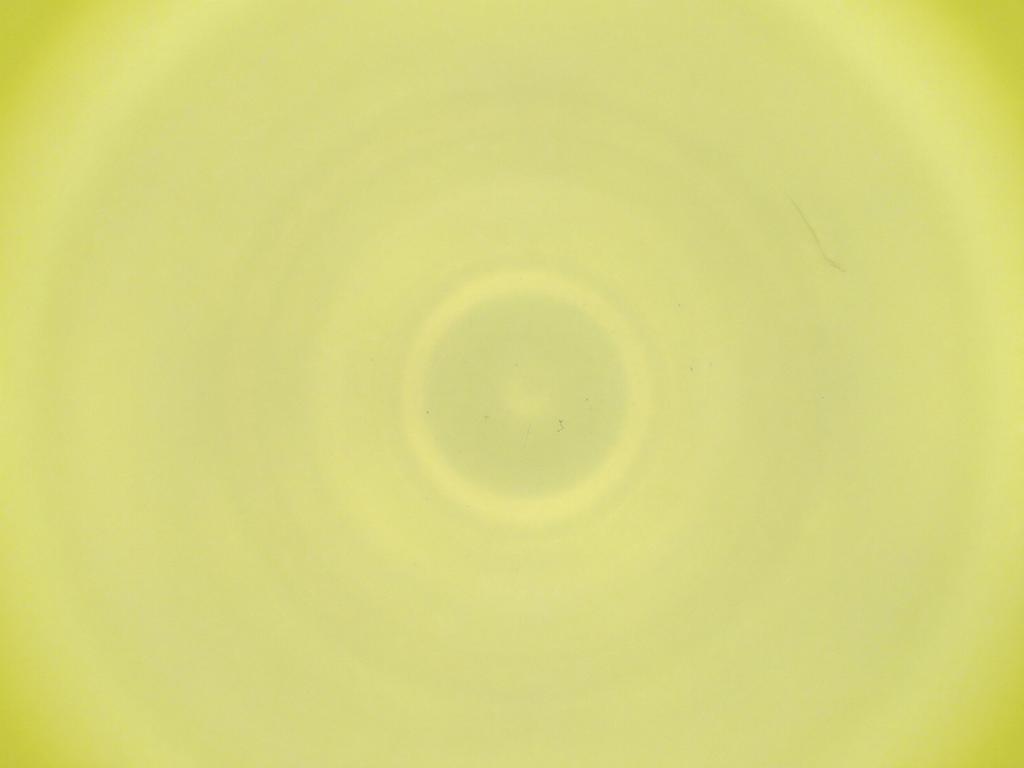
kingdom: Animalia
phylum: Arthropoda
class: Insecta
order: Diptera
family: Cecidomyiidae
